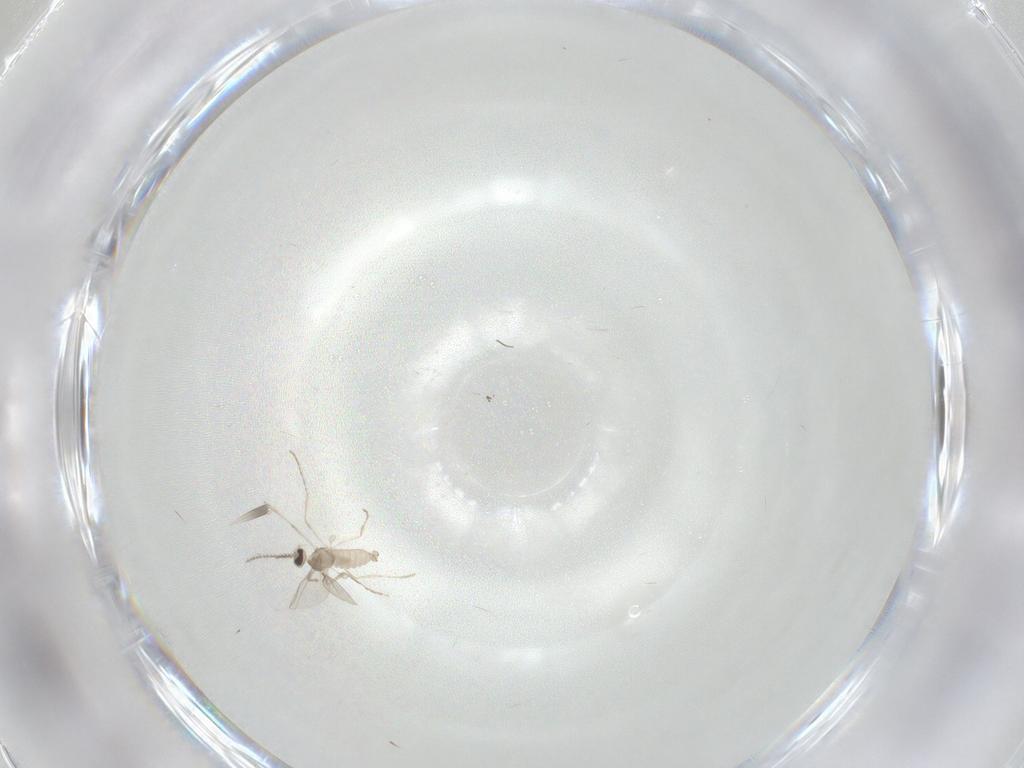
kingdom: Animalia
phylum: Arthropoda
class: Insecta
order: Diptera
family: Cecidomyiidae
